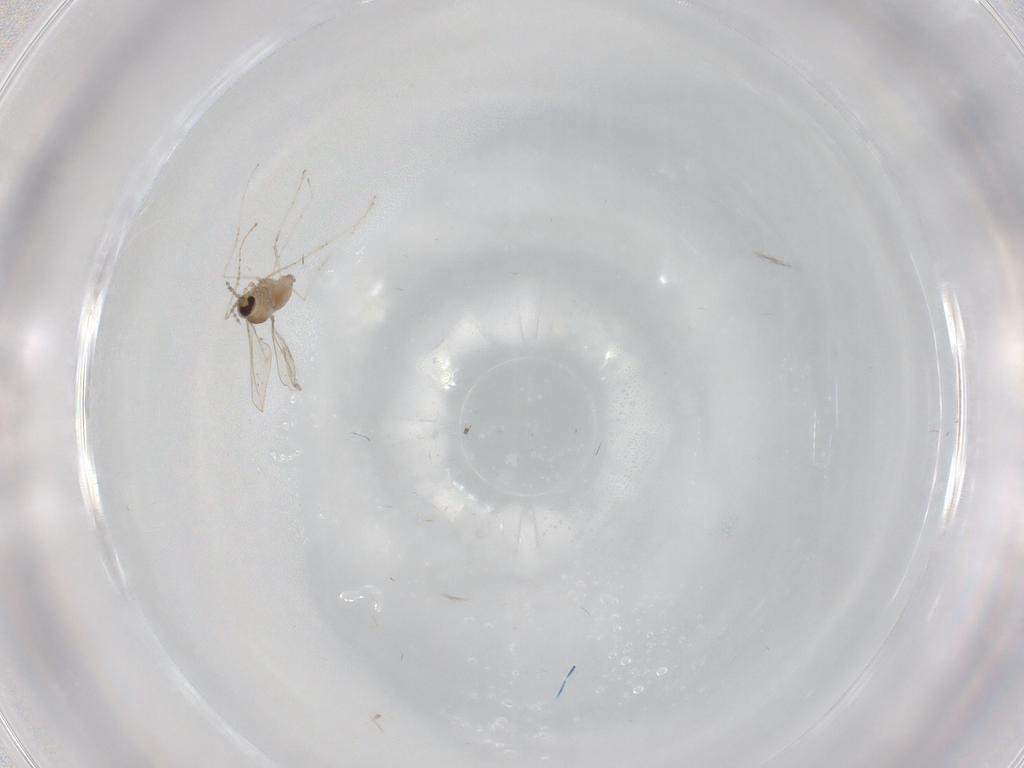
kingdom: Animalia
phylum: Arthropoda
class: Insecta
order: Diptera
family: Cecidomyiidae
